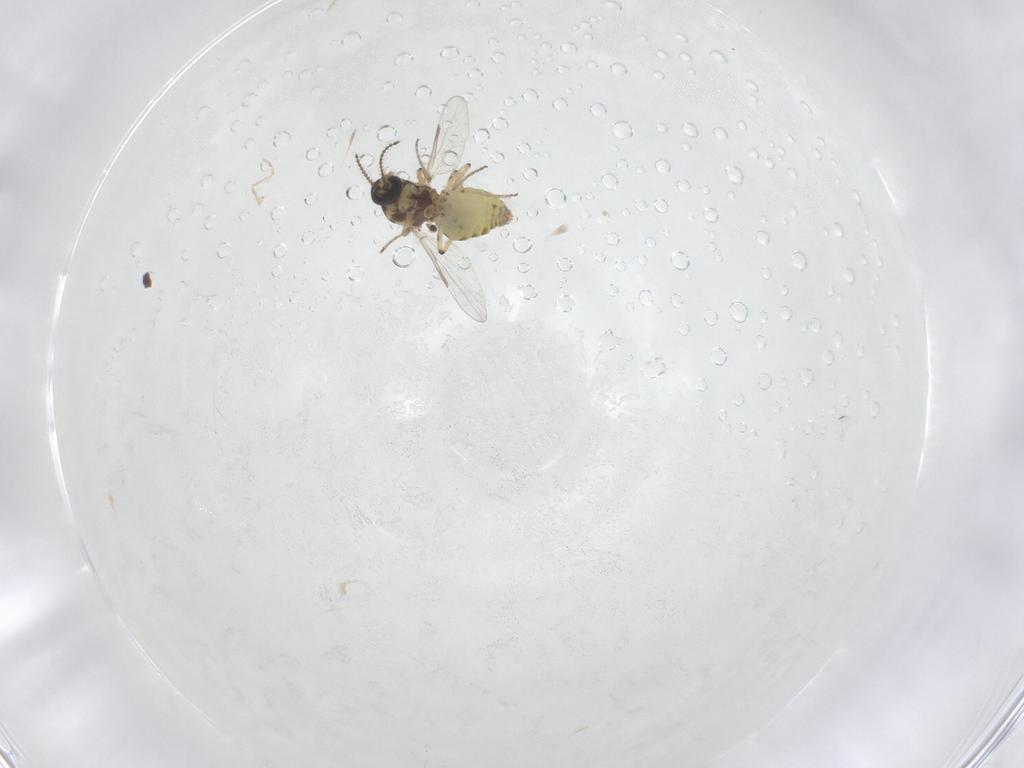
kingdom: Animalia
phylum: Arthropoda
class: Insecta
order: Diptera
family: Ceratopogonidae
